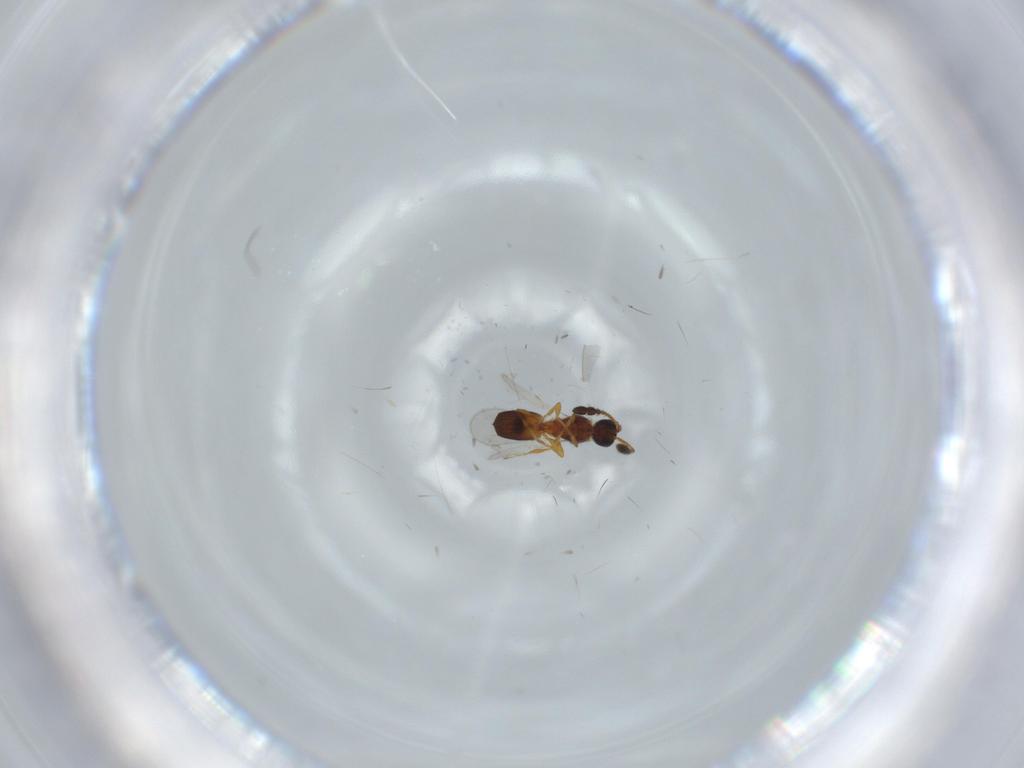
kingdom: Animalia
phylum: Arthropoda
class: Insecta
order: Hymenoptera
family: Diapriidae
